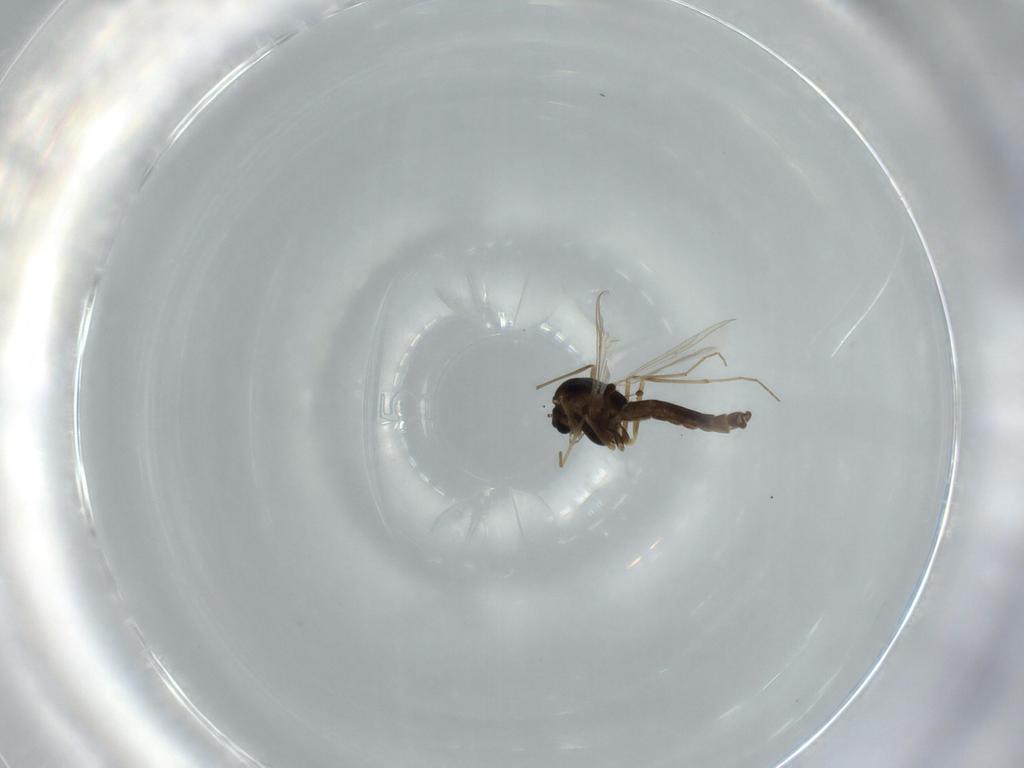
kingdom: Animalia
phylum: Arthropoda
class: Insecta
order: Diptera
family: Chironomidae
